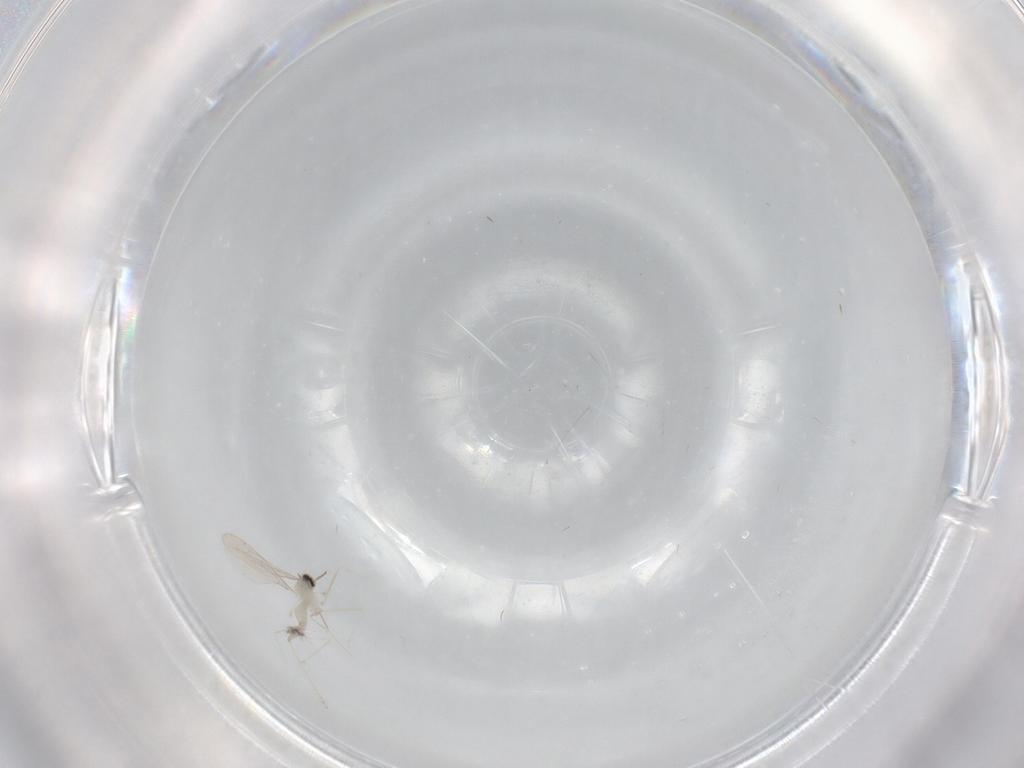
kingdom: Animalia
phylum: Arthropoda
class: Insecta
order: Diptera
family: Cecidomyiidae
